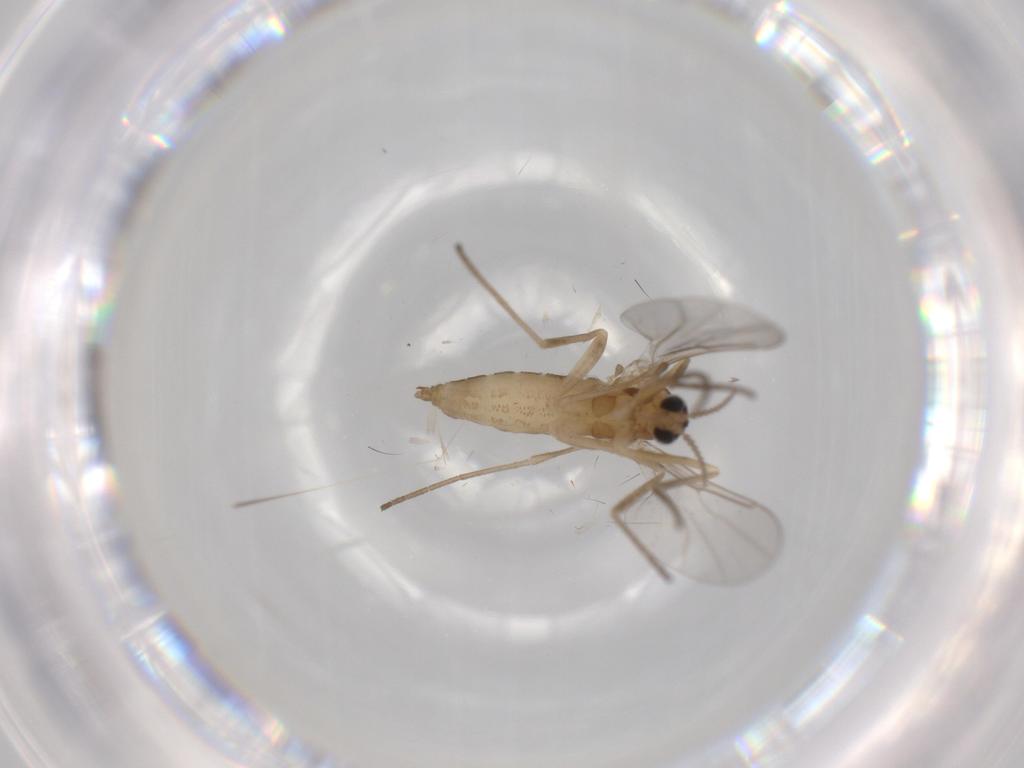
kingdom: Animalia
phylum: Arthropoda
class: Insecta
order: Diptera
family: Cecidomyiidae
